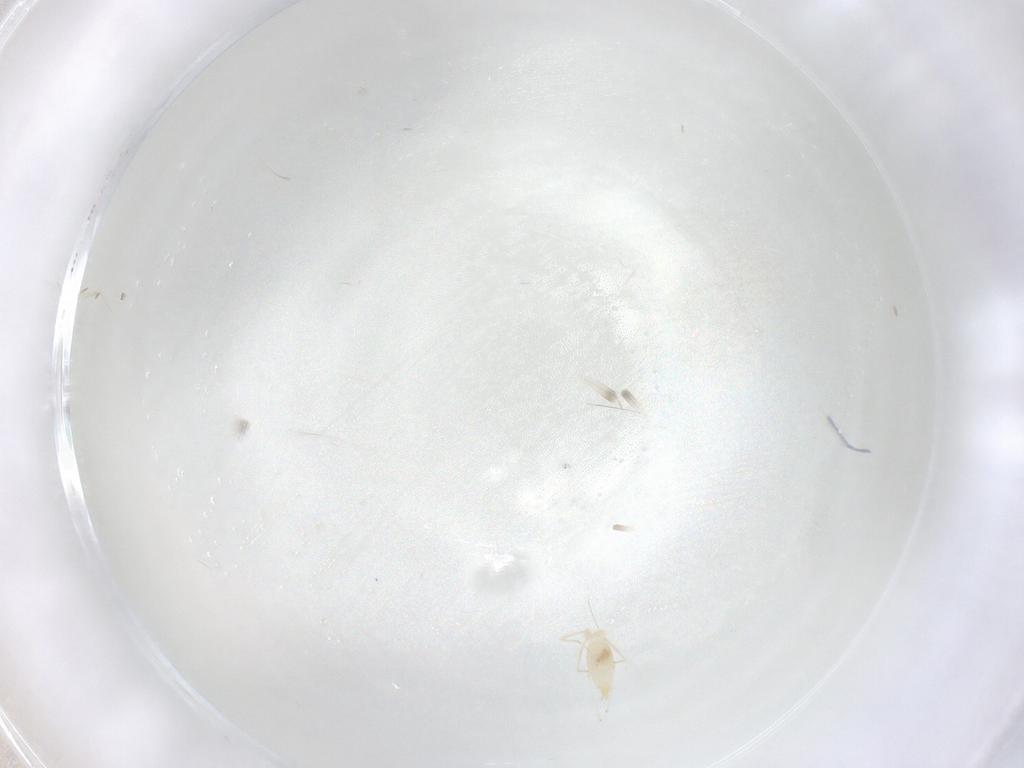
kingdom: Animalia
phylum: Arthropoda
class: Insecta
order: Diptera
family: Cecidomyiidae
